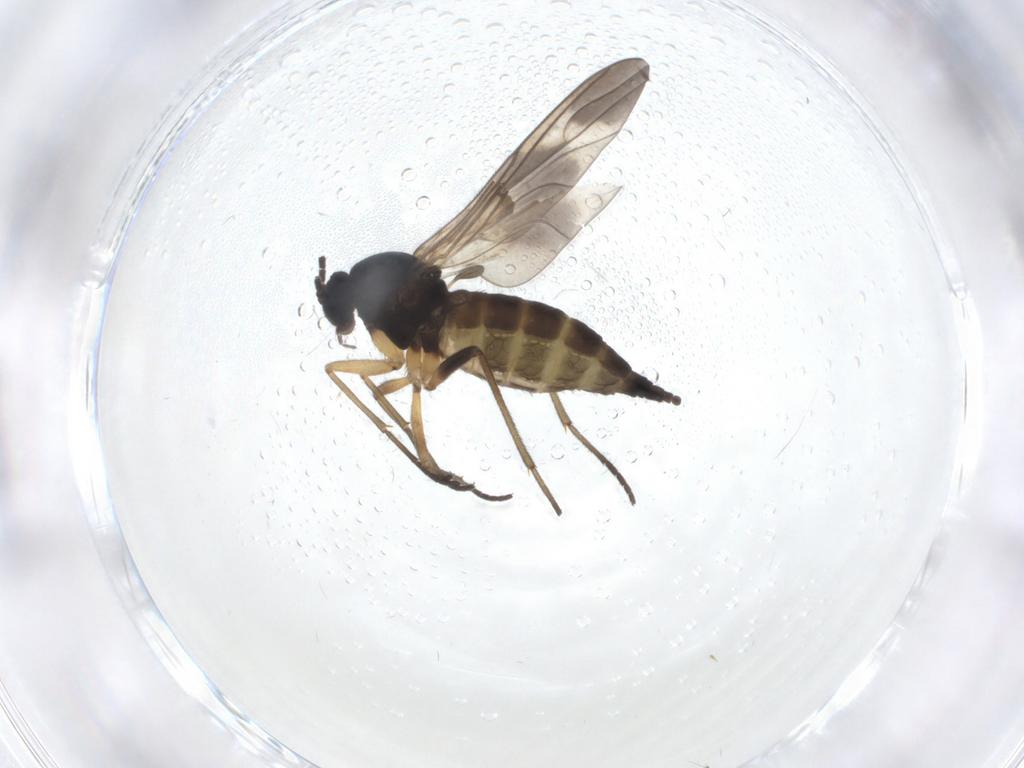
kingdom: Animalia
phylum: Arthropoda
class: Insecta
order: Diptera
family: Sciaridae
